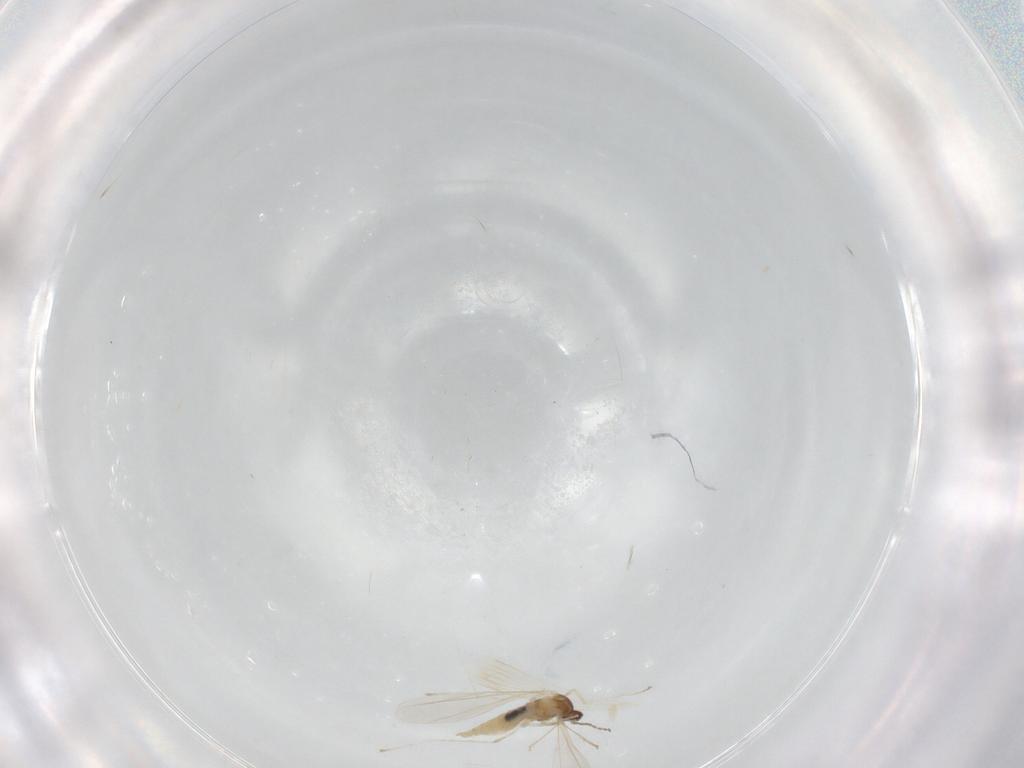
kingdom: Animalia
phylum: Arthropoda
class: Insecta
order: Diptera
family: Cecidomyiidae
